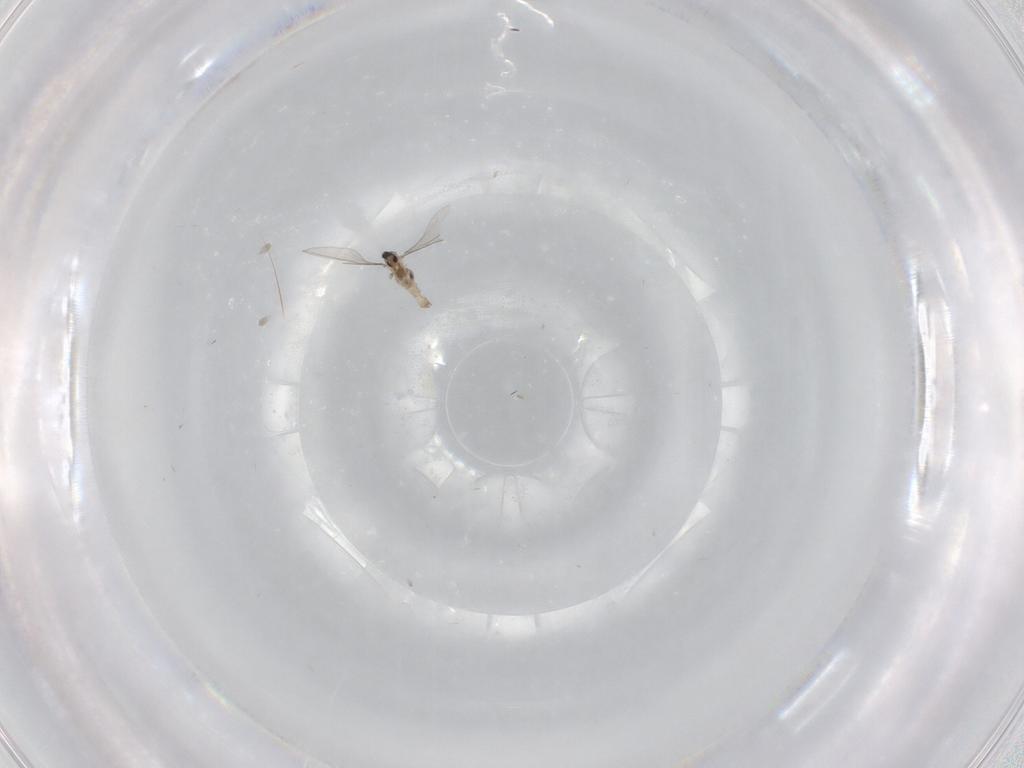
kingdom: Animalia
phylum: Arthropoda
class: Insecta
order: Diptera
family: Cecidomyiidae
